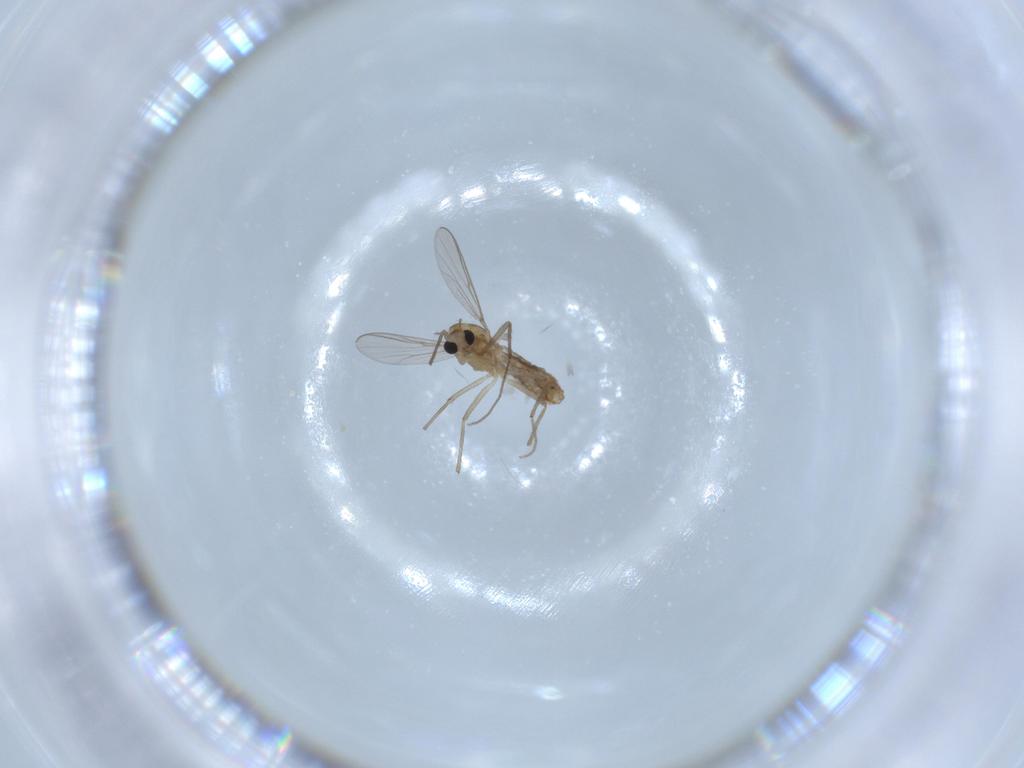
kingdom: Animalia
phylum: Arthropoda
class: Insecta
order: Diptera
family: Chironomidae
